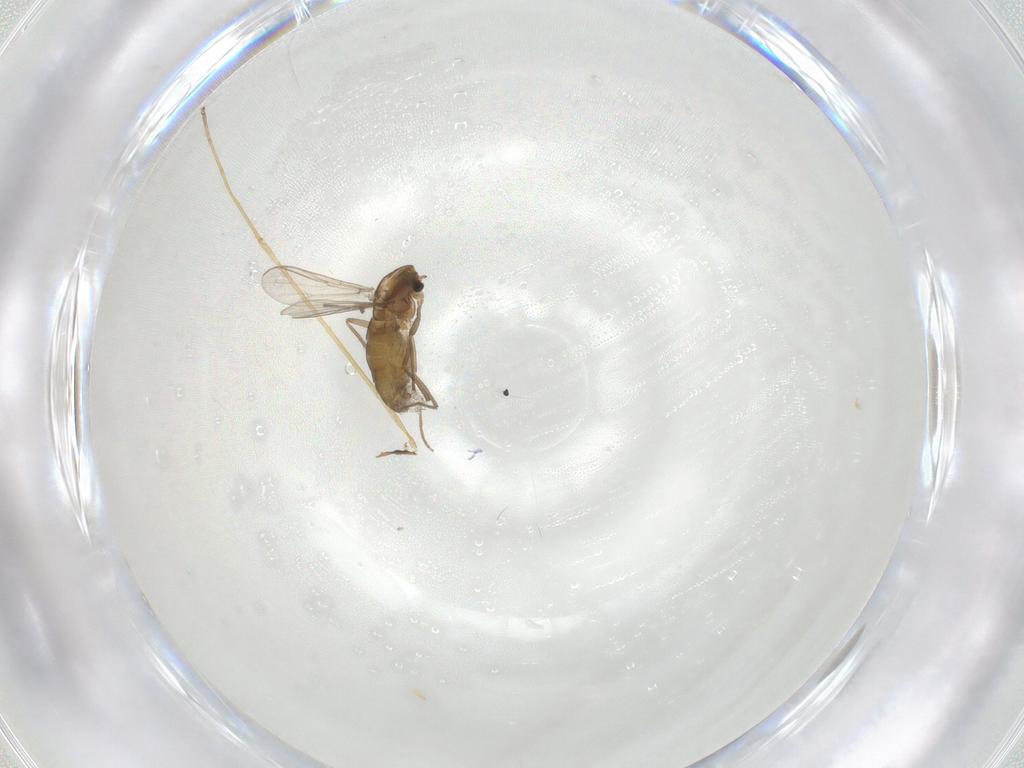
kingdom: Animalia
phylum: Arthropoda
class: Insecta
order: Diptera
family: Chironomidae
